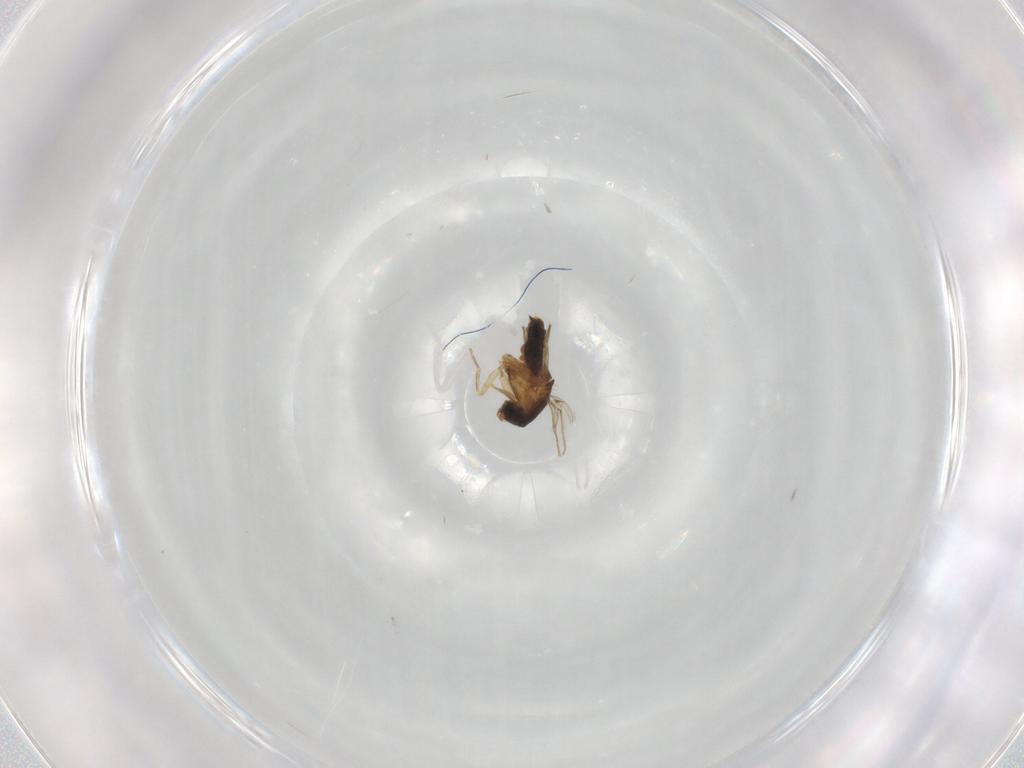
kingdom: Animalia
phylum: Arthropoda
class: Insecta
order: Diptera
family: Ceratopogonidae
